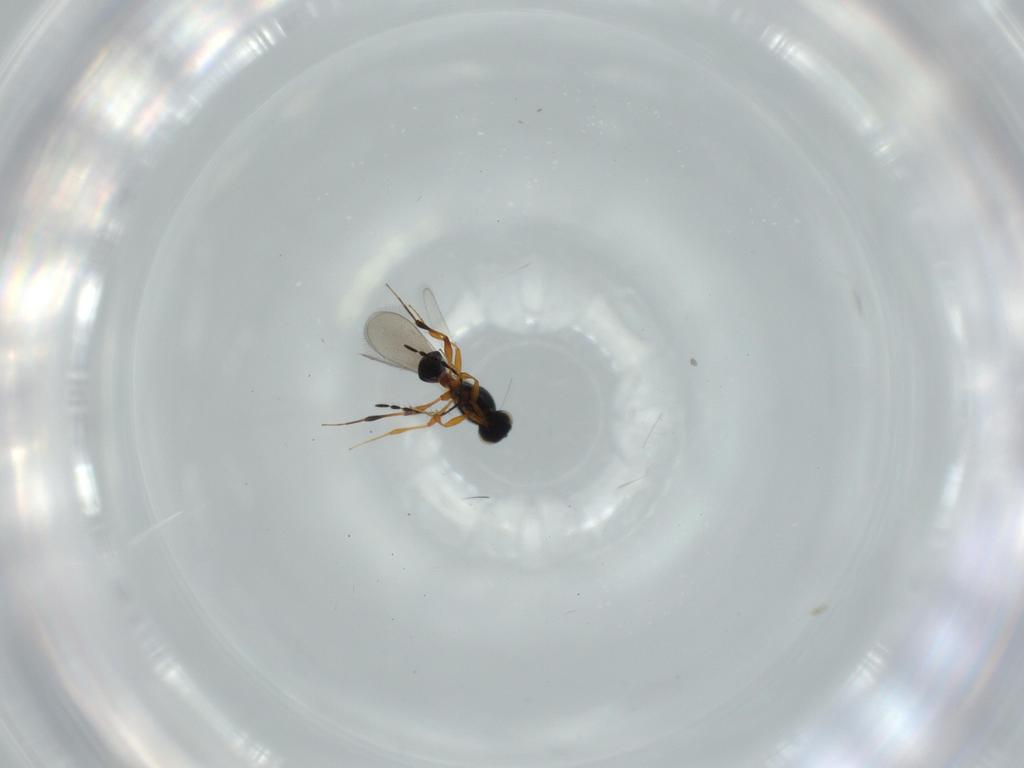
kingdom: Animalia
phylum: Arthropoda
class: Insecta
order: Hymenoptera
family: Platygastridae
